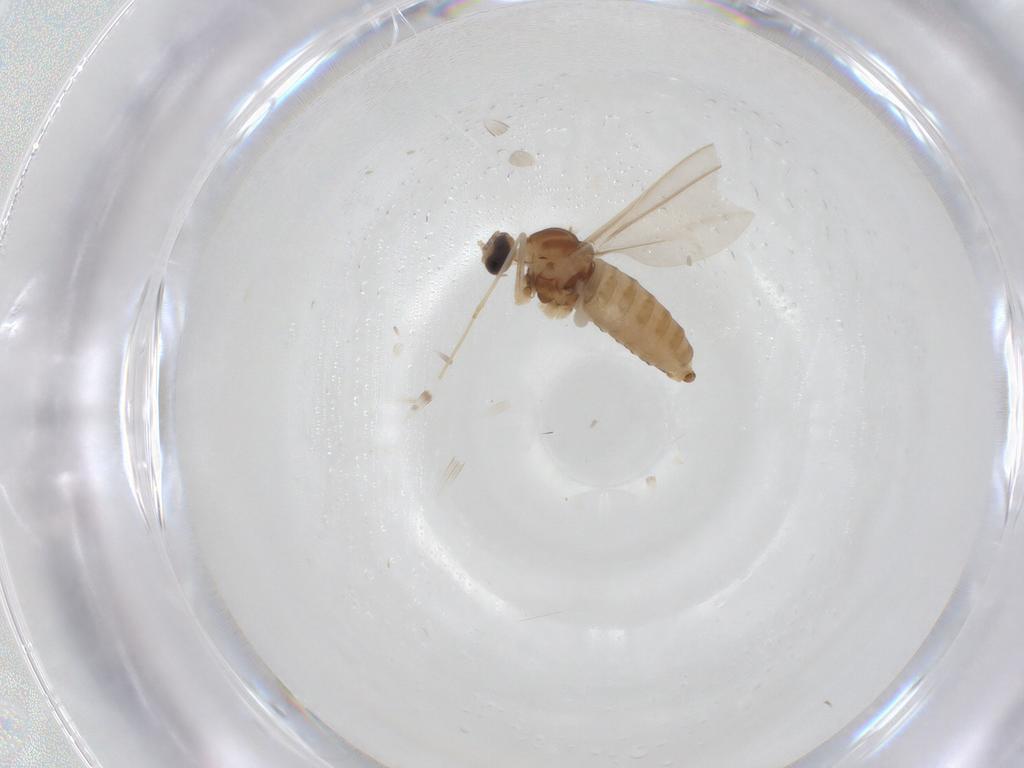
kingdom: Animalia
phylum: Arthropoda
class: Insecta
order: Diptera
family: Cecidomyiidae
